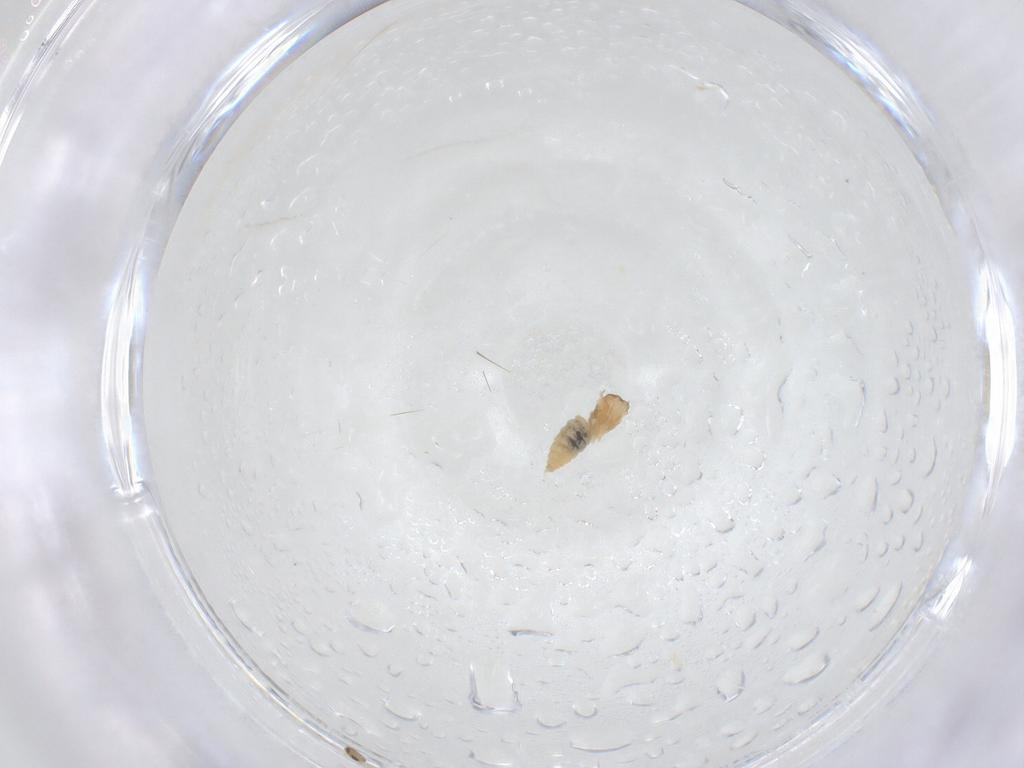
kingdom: Animalia
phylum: Arthropoda
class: Insecta
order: Diptera
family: Cecidomyiidae
